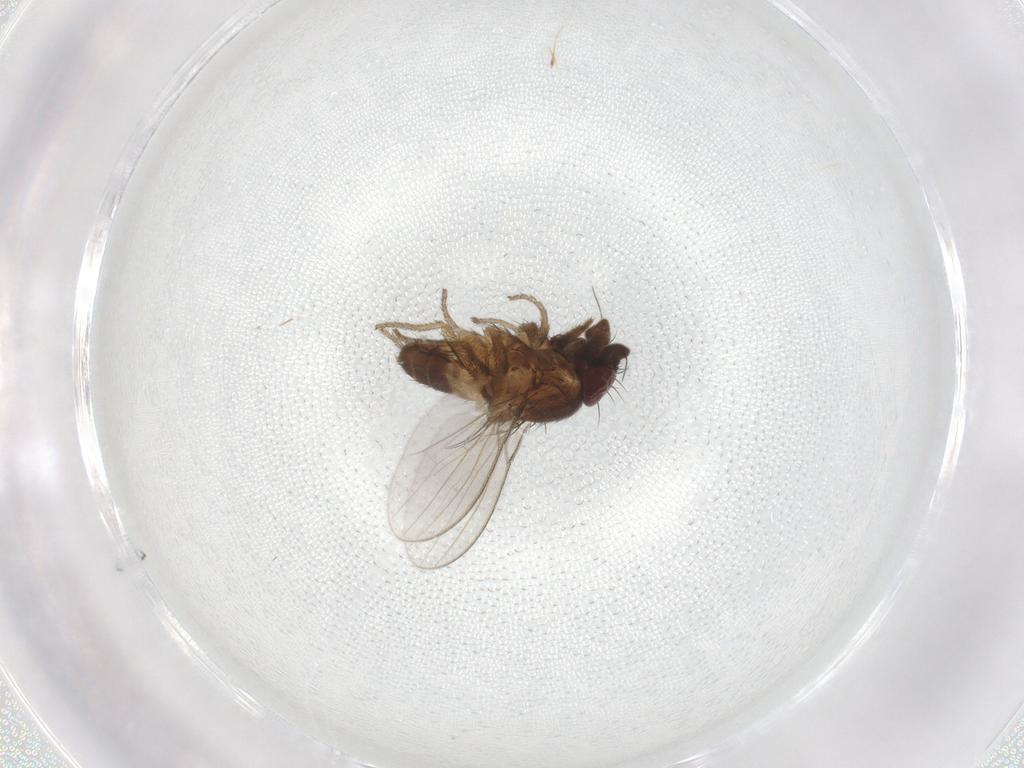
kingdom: Animalia
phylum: Arthropoda
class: Insecta
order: Diptera
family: Milichiidae
